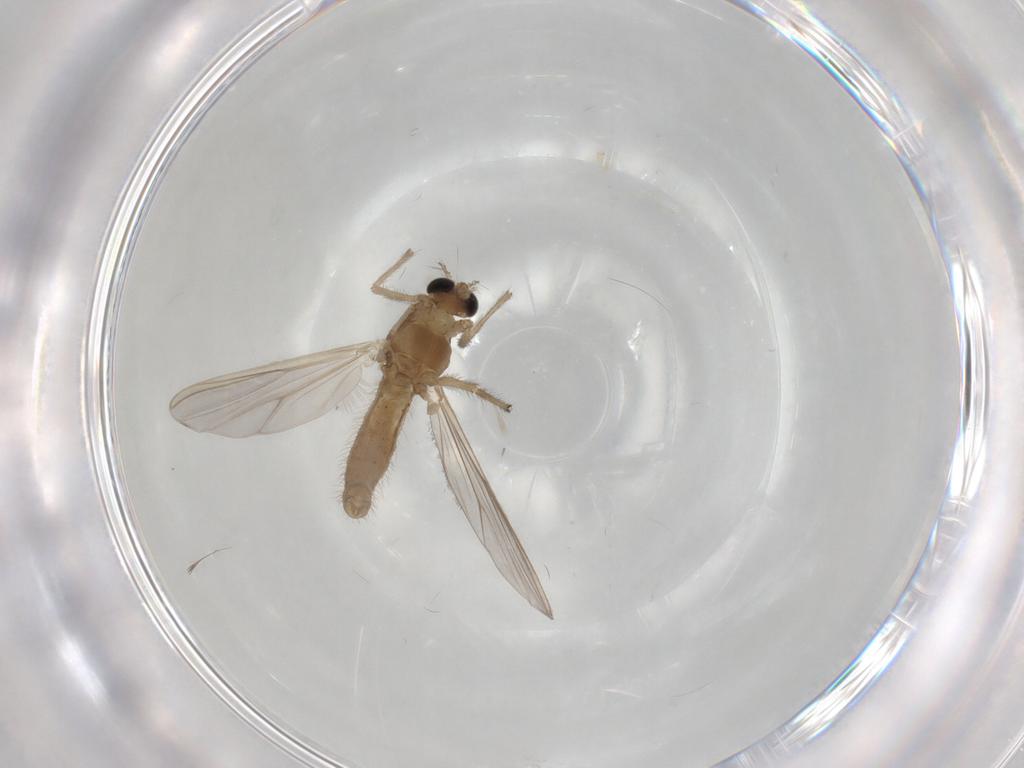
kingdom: Animalia
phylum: Arthropoda
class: Insecta
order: Diptera
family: Chironomidae
